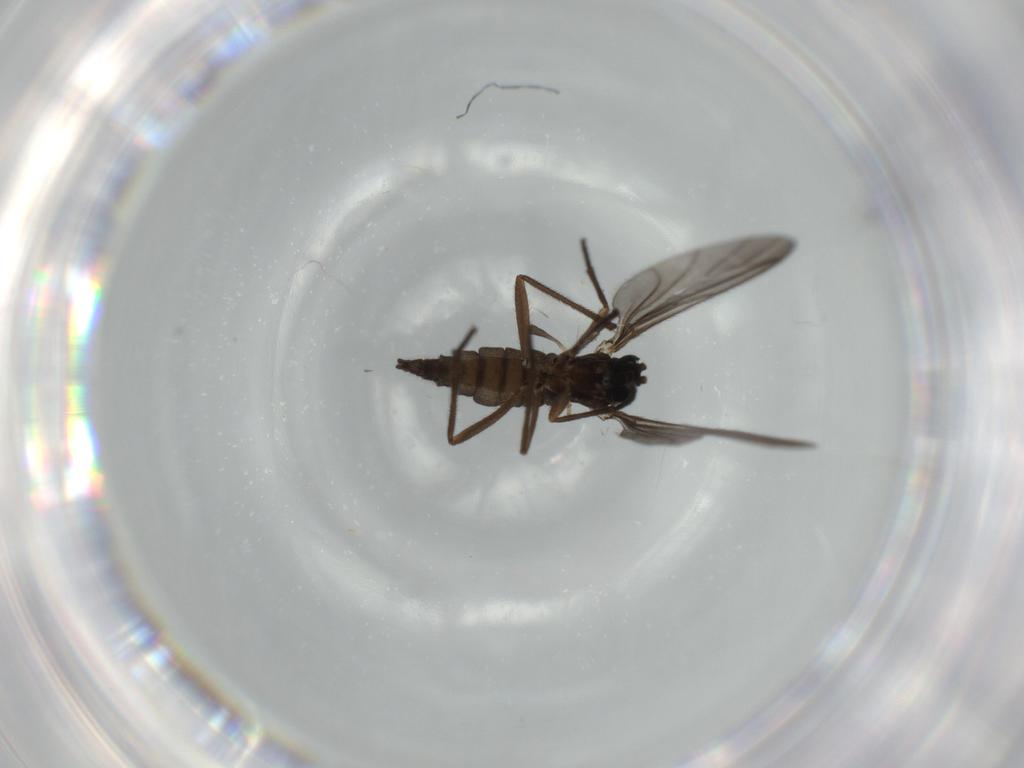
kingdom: Animalia
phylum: Arthropoda
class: Insecta
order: Diptera
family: Sciaridae
